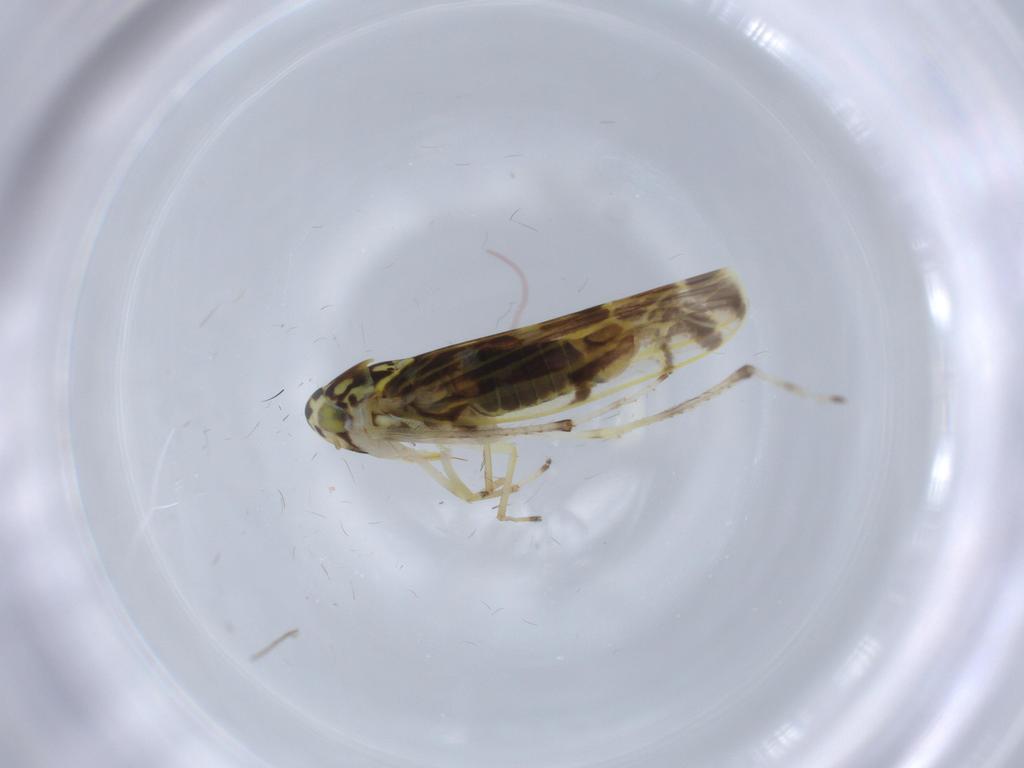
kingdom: Animalia
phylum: Arthropoda
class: Insecta
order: Hemiptera
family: Cicadellidae
